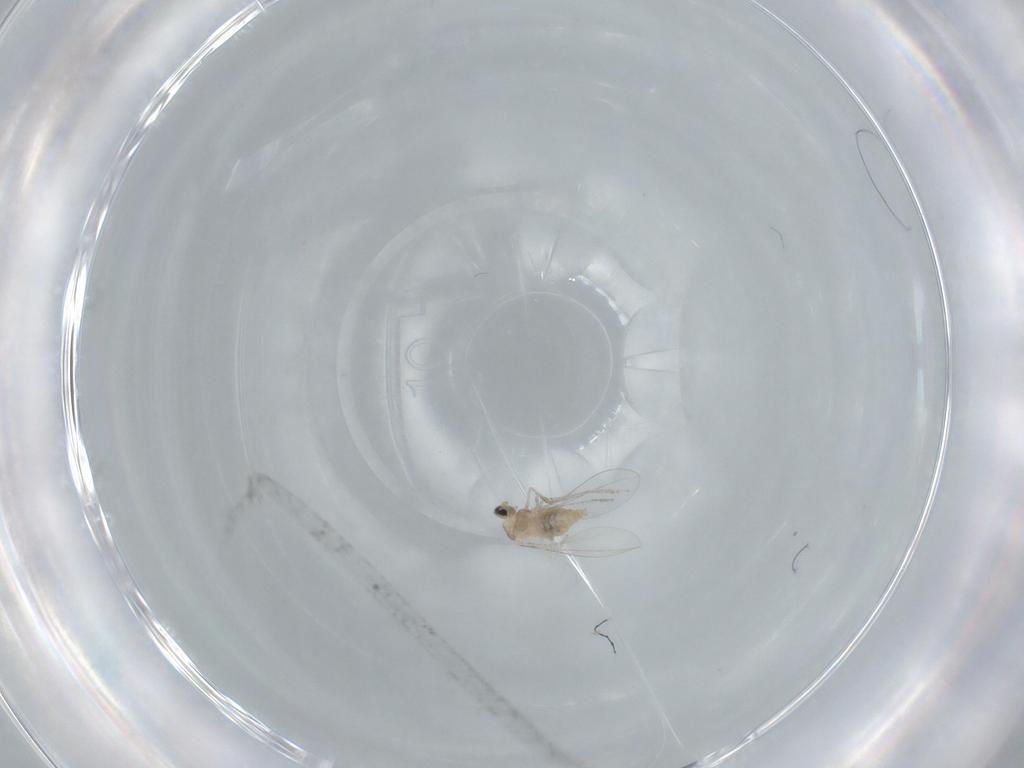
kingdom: Animalia
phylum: Arthropoda
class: Insecta
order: Diptera
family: Cecidomyiidae
